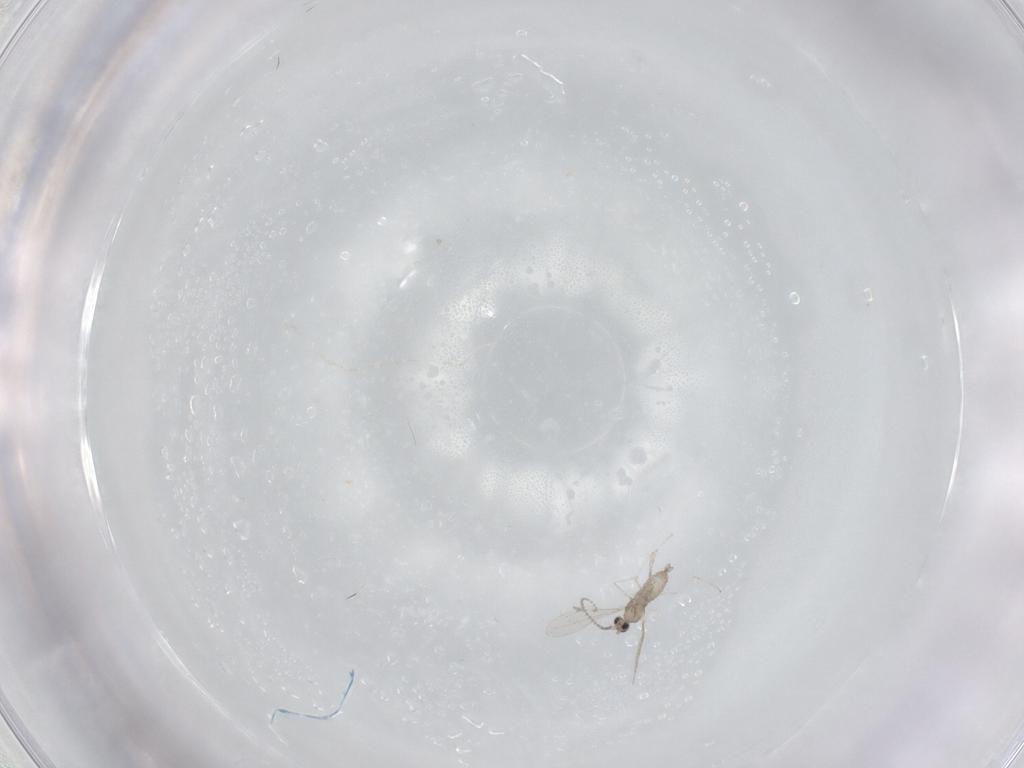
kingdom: Animalia
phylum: Arthropoda
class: Insecta
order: Diptera
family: Cecidomyiidae
